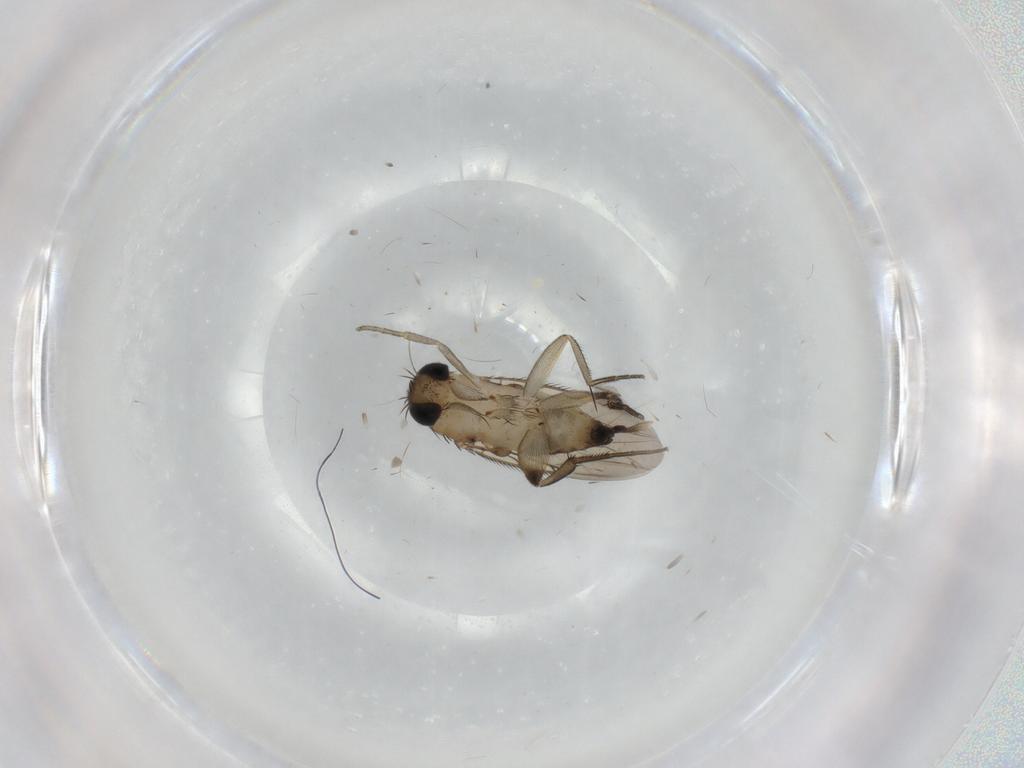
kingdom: Animalia
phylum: Arthropoda
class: Insecta
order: Diptera
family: Phoridae
